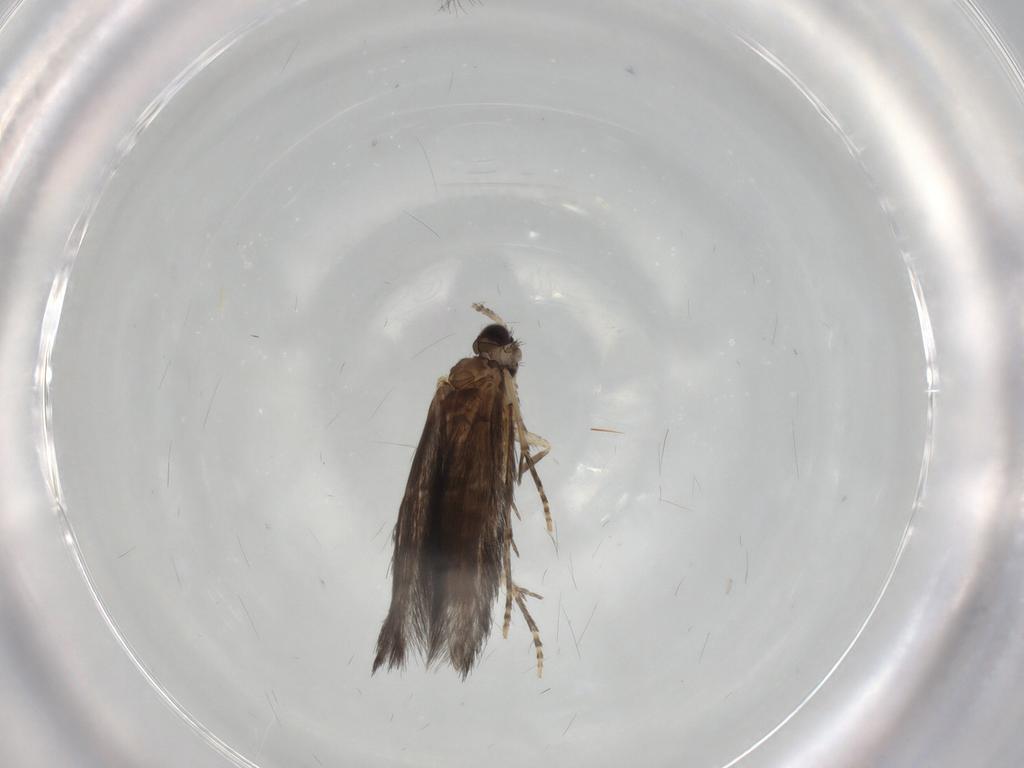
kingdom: Animalia
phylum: Arthropoda
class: Insecta
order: Trichoptera
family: Hydroptilidae
